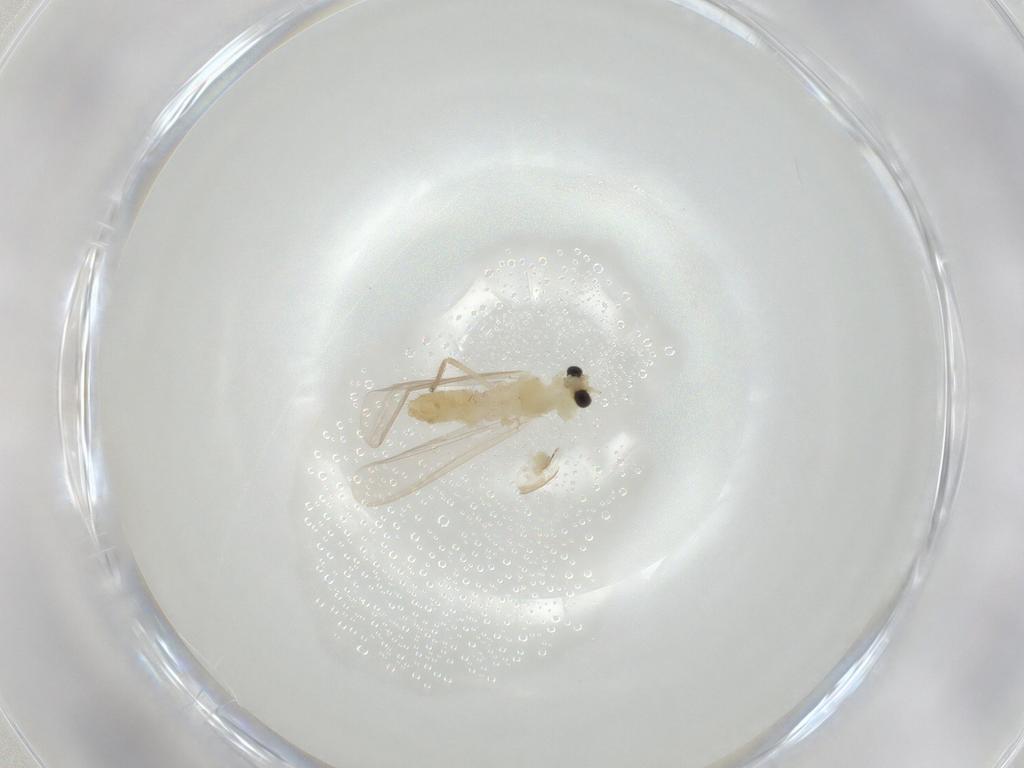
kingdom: Animalia
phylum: Arthropoda
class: Insecta
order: Diptera
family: Chironomidae
